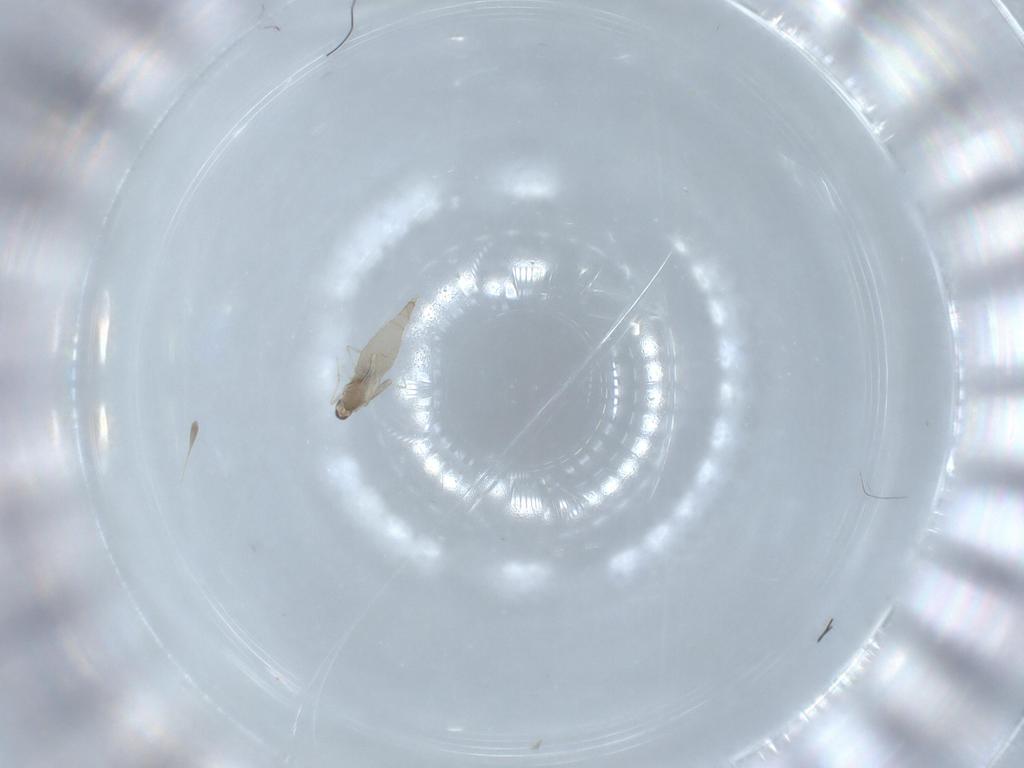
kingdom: Animalia
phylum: Arthropoda
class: Insecta
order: Diptera
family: Cecidomyiidae
